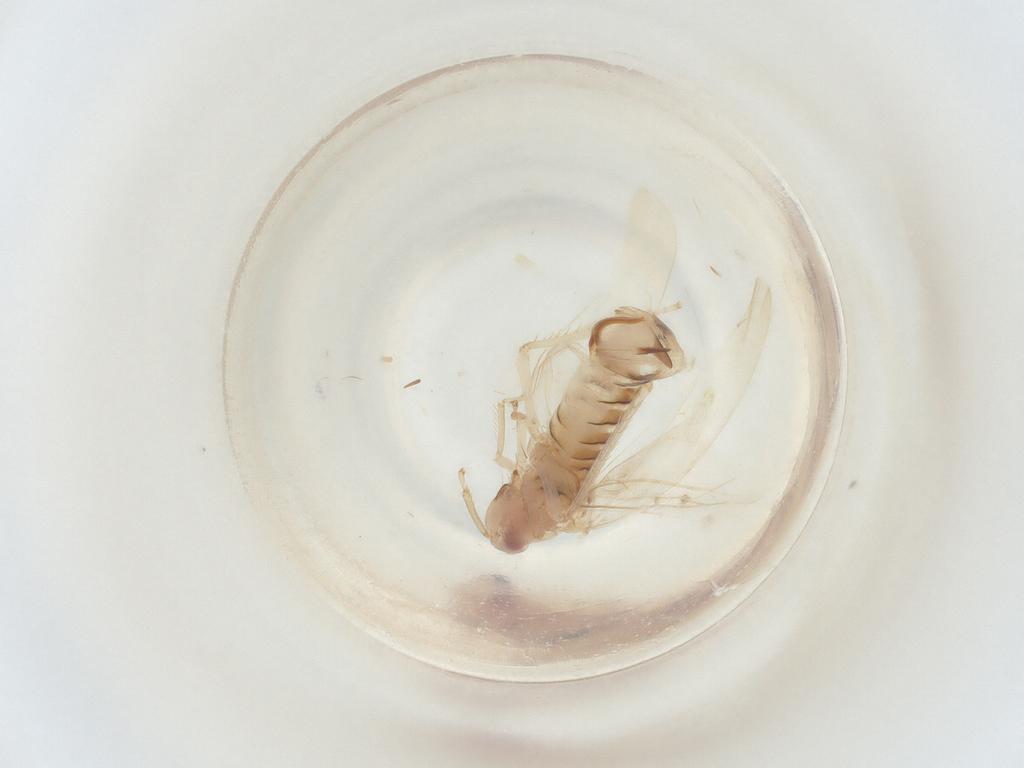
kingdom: Animalia
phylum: Arthropoda
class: Insecta
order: Hemiptera
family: Cicadellidae
